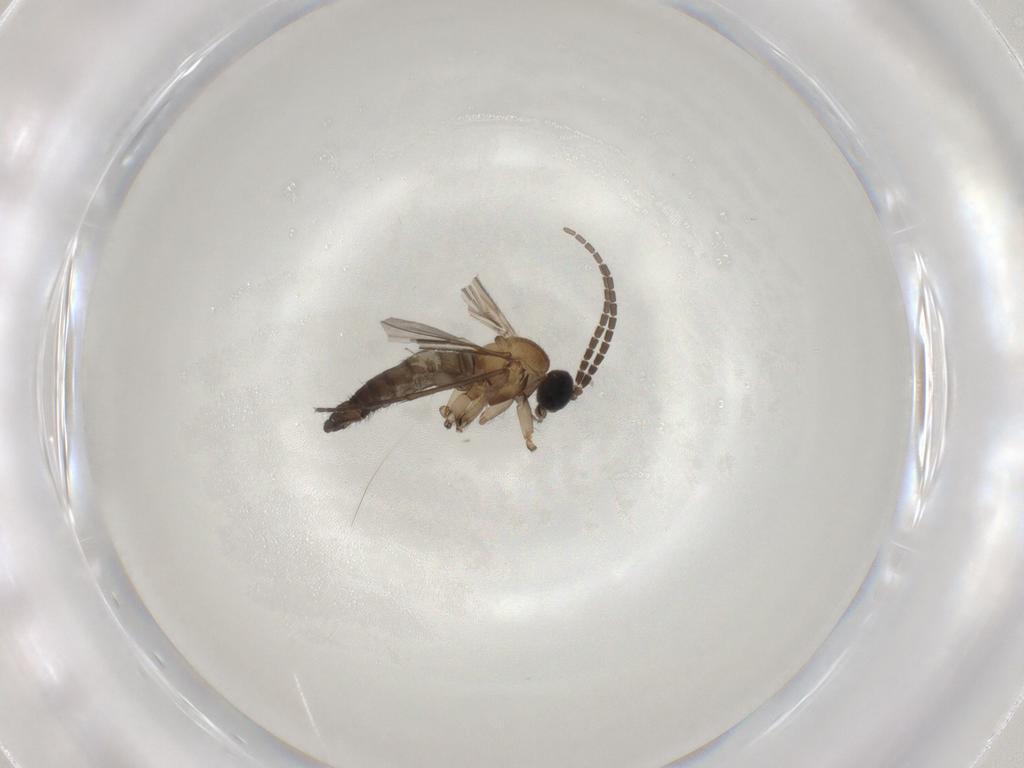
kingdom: Animalia
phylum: Arthropoda
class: Insecta
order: Diptera
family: Sciaridae
